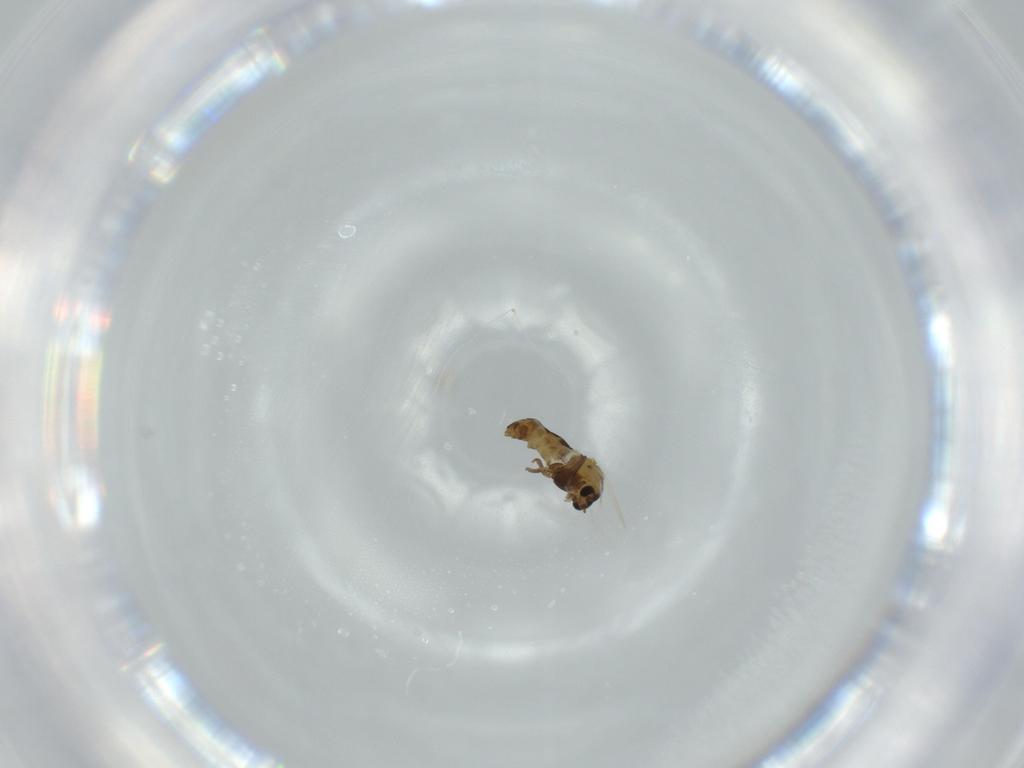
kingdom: Animalia
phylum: Arthropoda
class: Insecta
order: Diptera
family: Chironomidae
